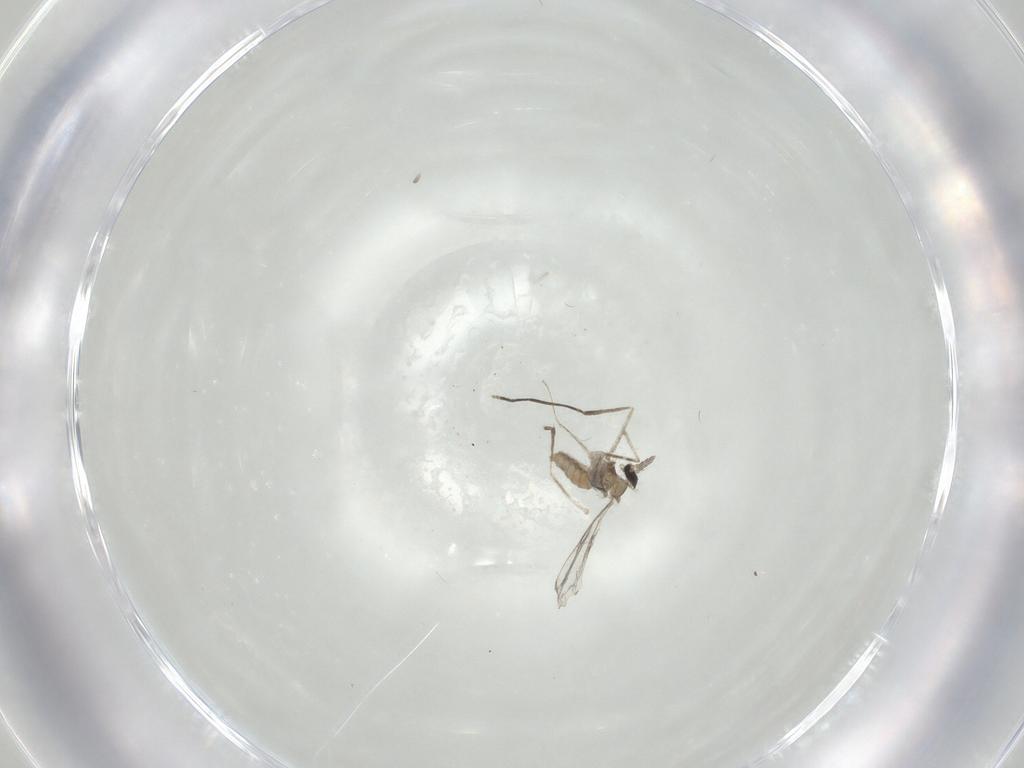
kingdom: Animalia
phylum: Arthropoda
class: Insecta
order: Diptera
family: Cecidomyiidae
